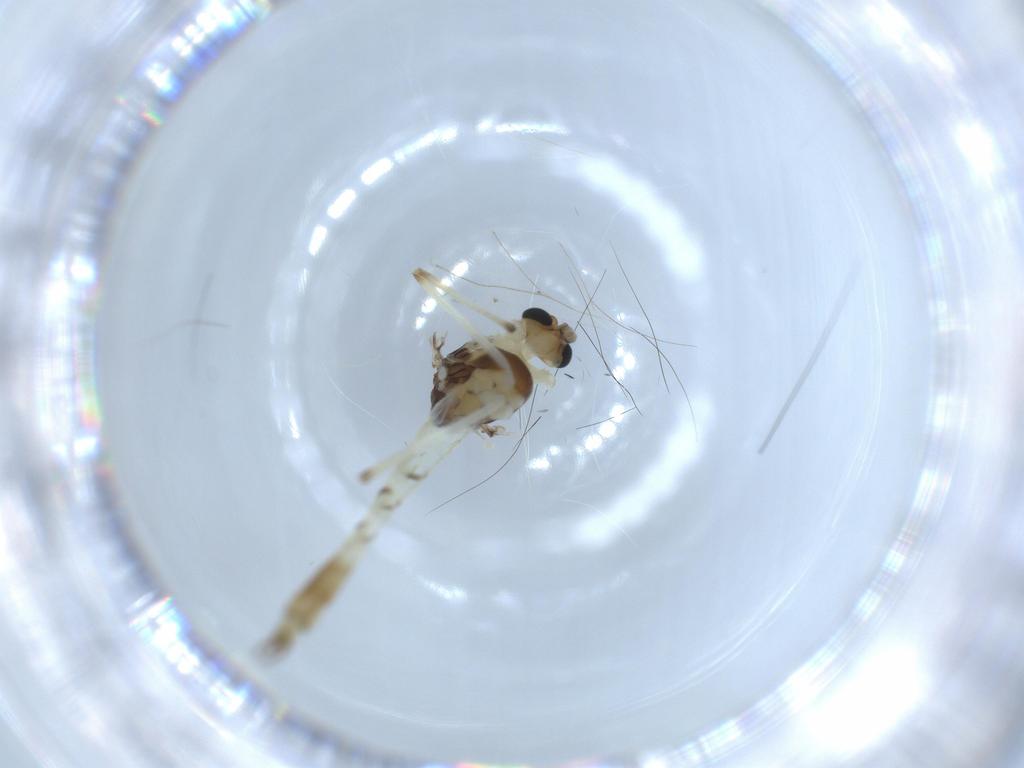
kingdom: Animalia
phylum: Arthropoda
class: Insecta
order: Diptera
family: Chironomidae
